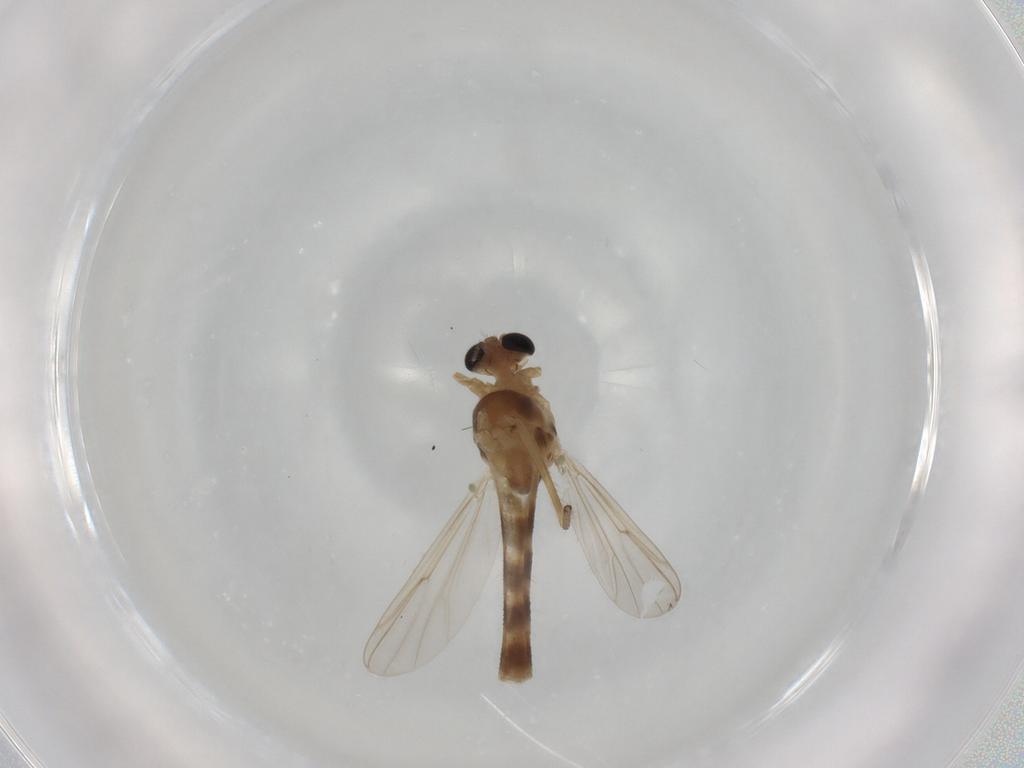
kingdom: Animalia
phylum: Arthropoda
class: Insecta
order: Diptera
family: Chironomidae
